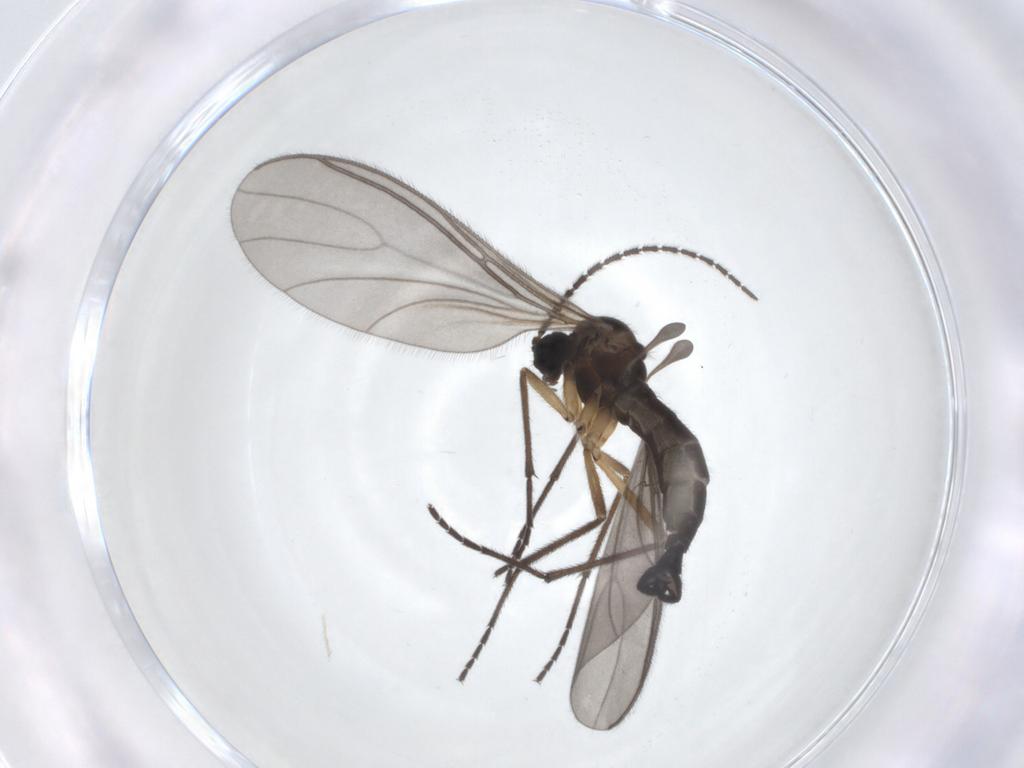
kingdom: Animalia
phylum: Arthropoda
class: Insecta
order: Diptera
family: Sciaridae
